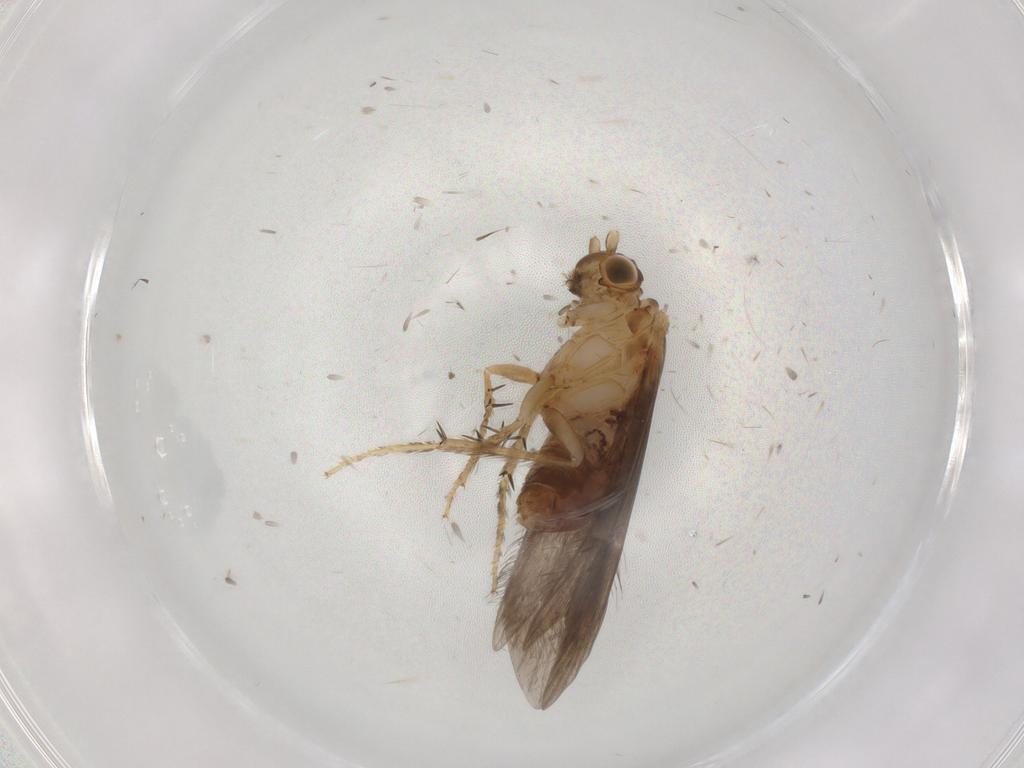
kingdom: Animalia
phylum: Arthropoda
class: Insecta
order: Trichoptera
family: Glossosomatidae
